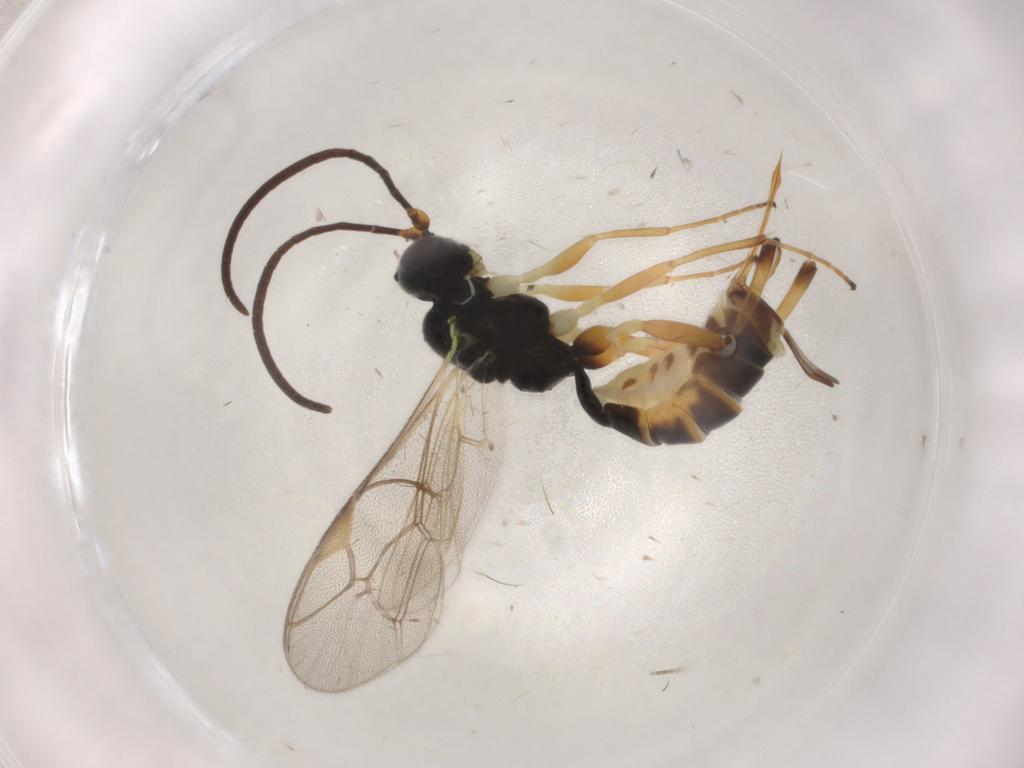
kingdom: Animalia
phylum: Arthropoda
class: Insecta
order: Hymenoptera
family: Ichneumonidae
